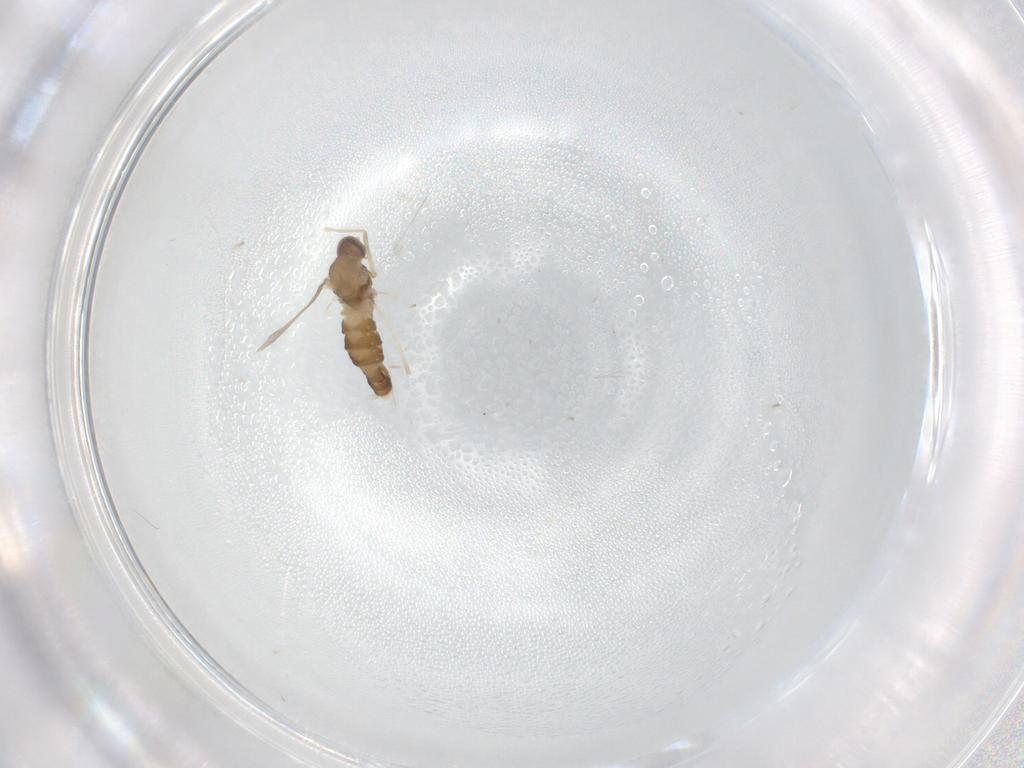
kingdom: Animalia
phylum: Arthropoda
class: Insecta
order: Diptera
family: Cecidomyiidae
